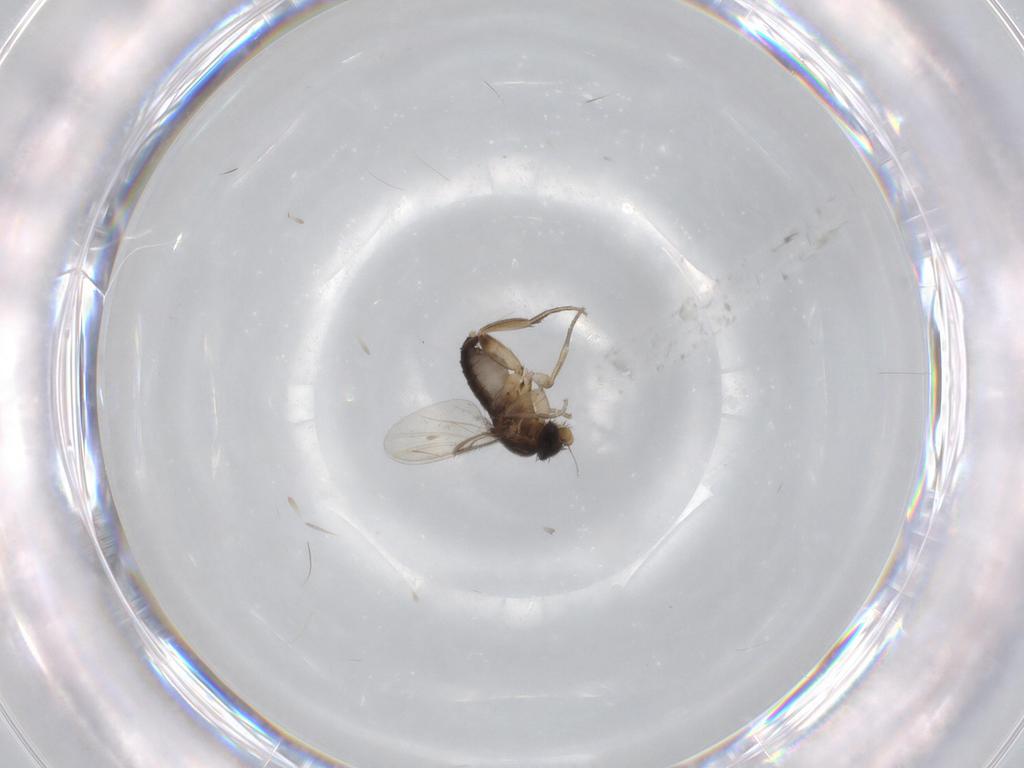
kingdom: Animalia
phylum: Arthropoda
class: Insecta
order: Diptera
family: Phoridae
